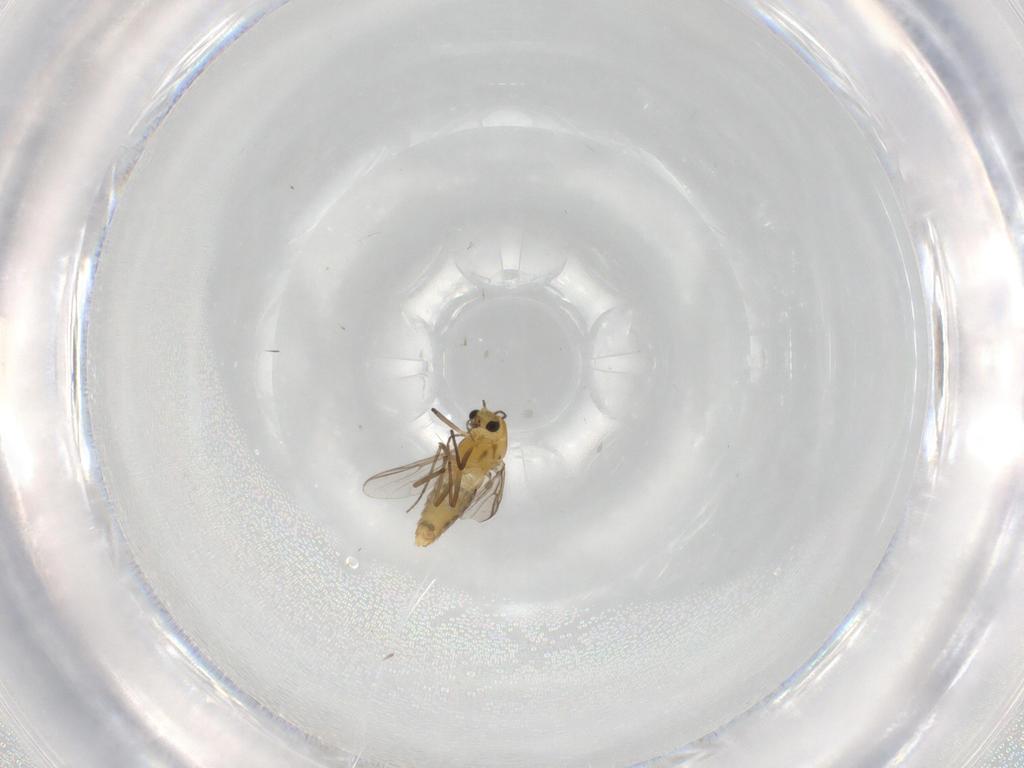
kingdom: Animalia
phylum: Arthropoda
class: Insecta
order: Diptera
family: Chironomidae
